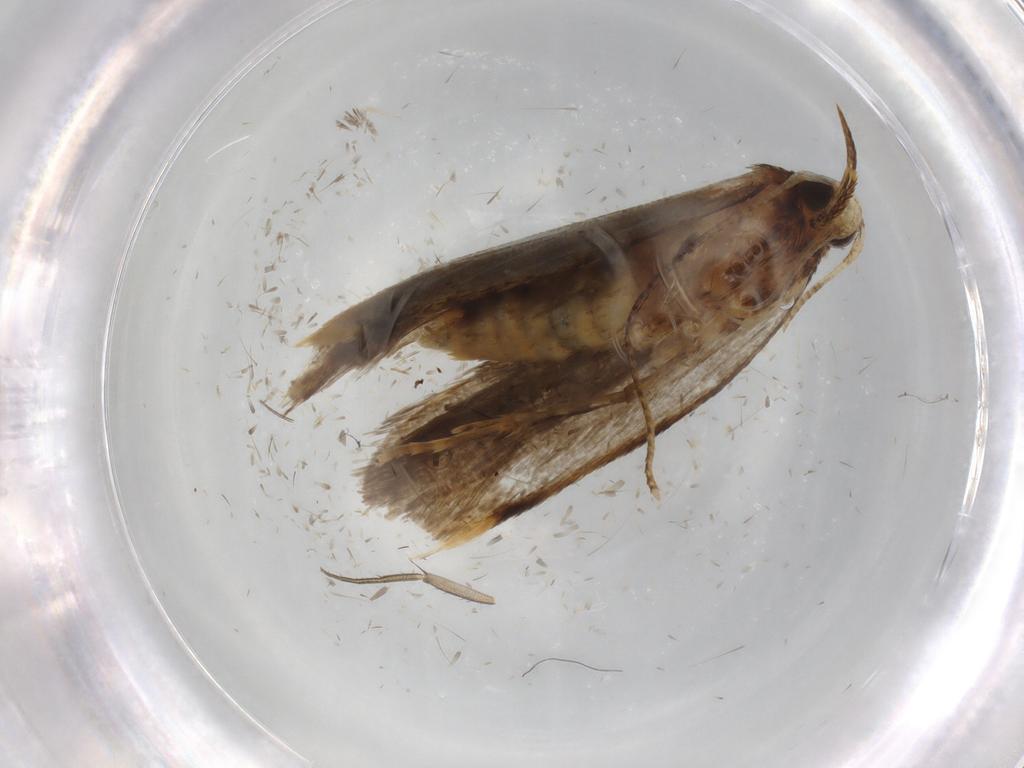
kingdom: Animalia
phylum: Arthropoda
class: Insecta
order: Lepidoptera
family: Autostichidae
